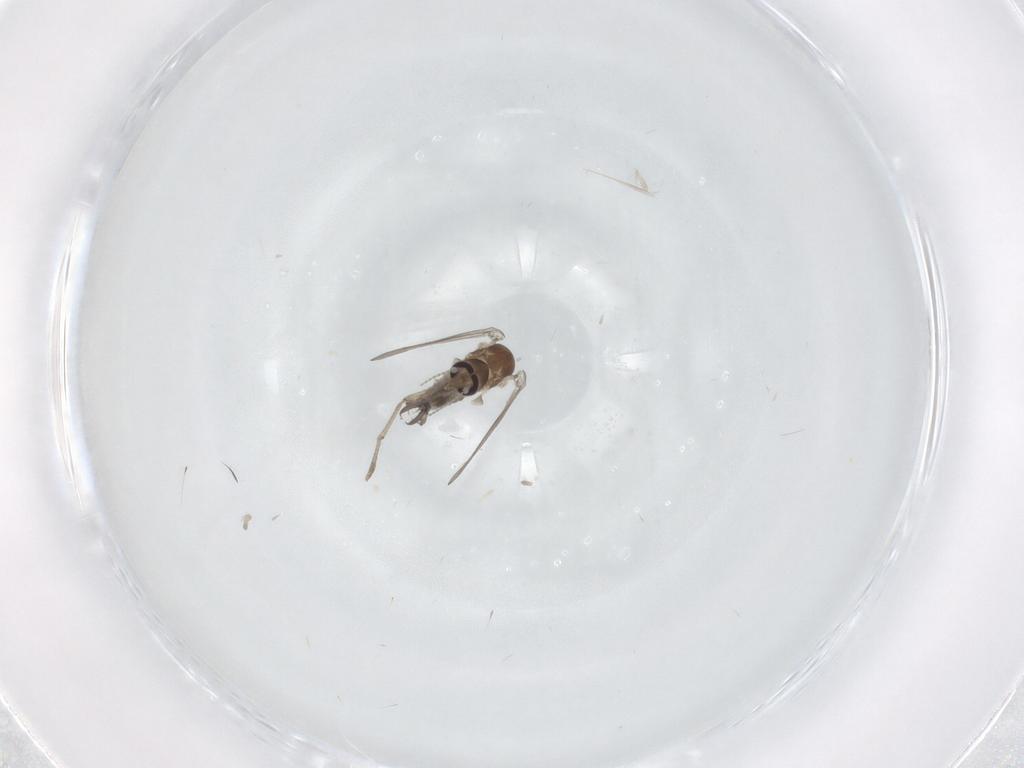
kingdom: Animalia
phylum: Arthropoda
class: Insecta
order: Diptera
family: Psychodidae
